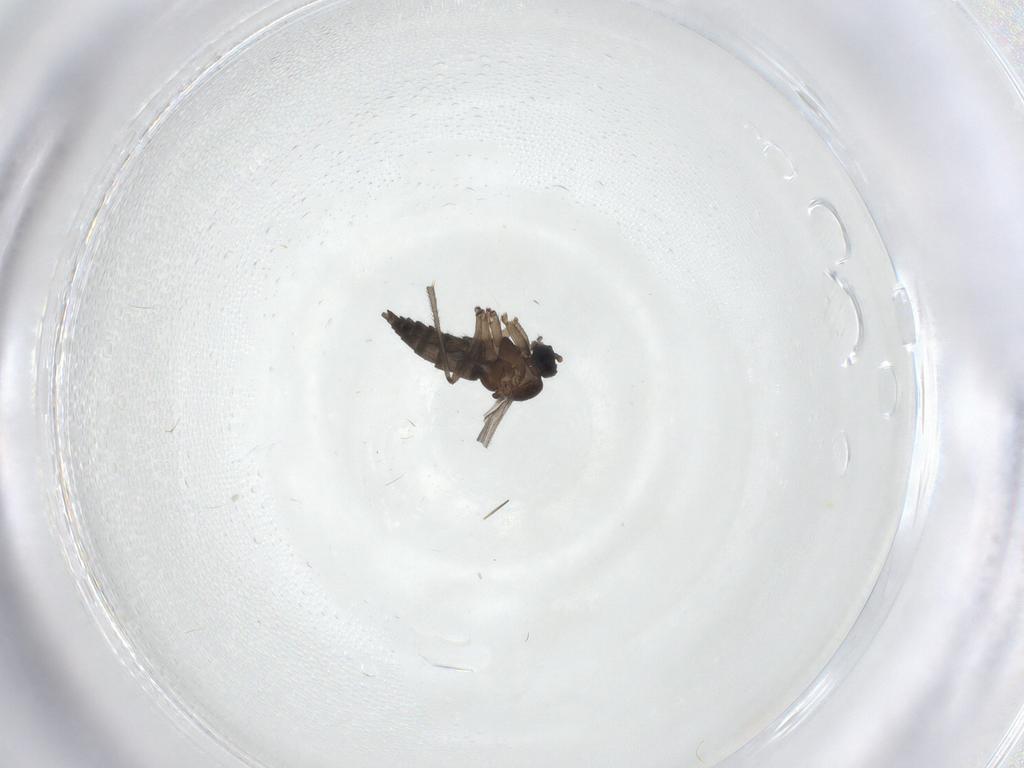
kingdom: Animalia
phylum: Arthropoda
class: Insecta
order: Diptera
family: Sciaridae
